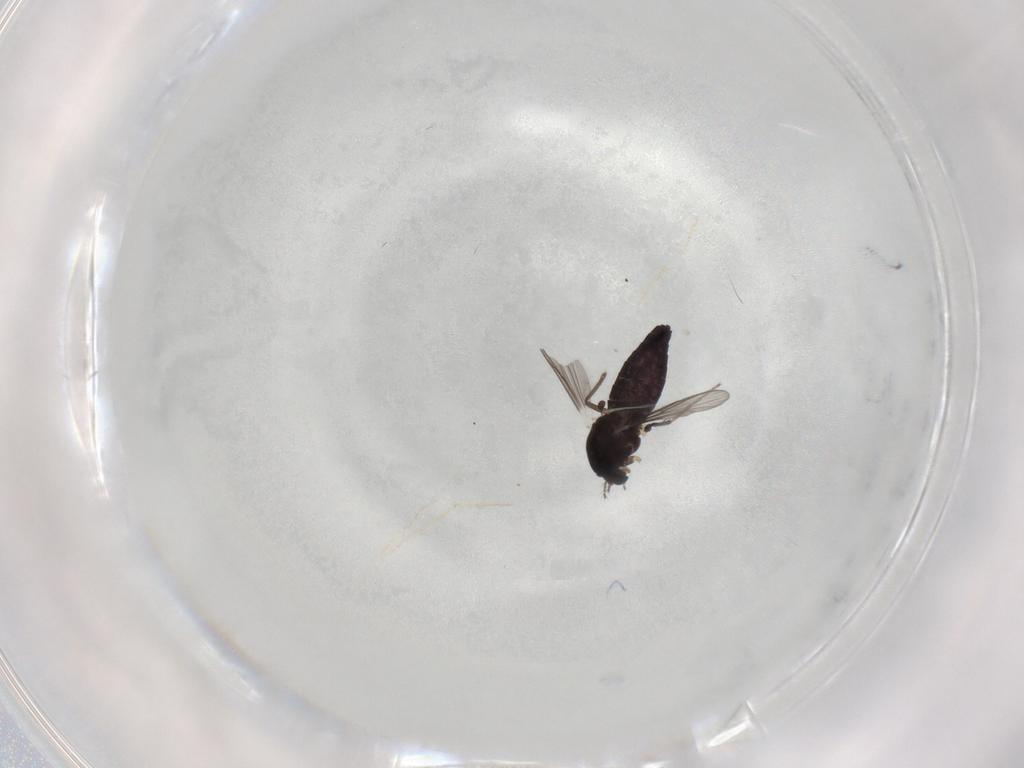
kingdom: Animalia
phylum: Arthropoda
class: Insecta
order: Diptera
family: Chironomidae
